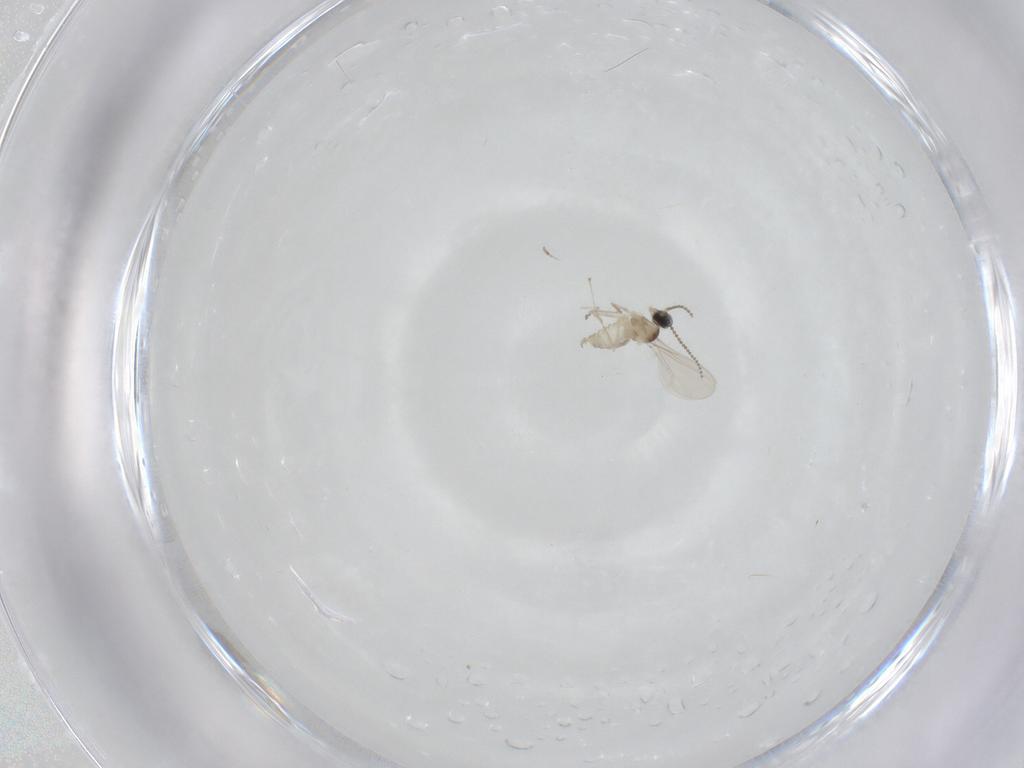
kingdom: Animalia
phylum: Arthropoda
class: Insecta
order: Diptera
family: Cecidomyiidae
